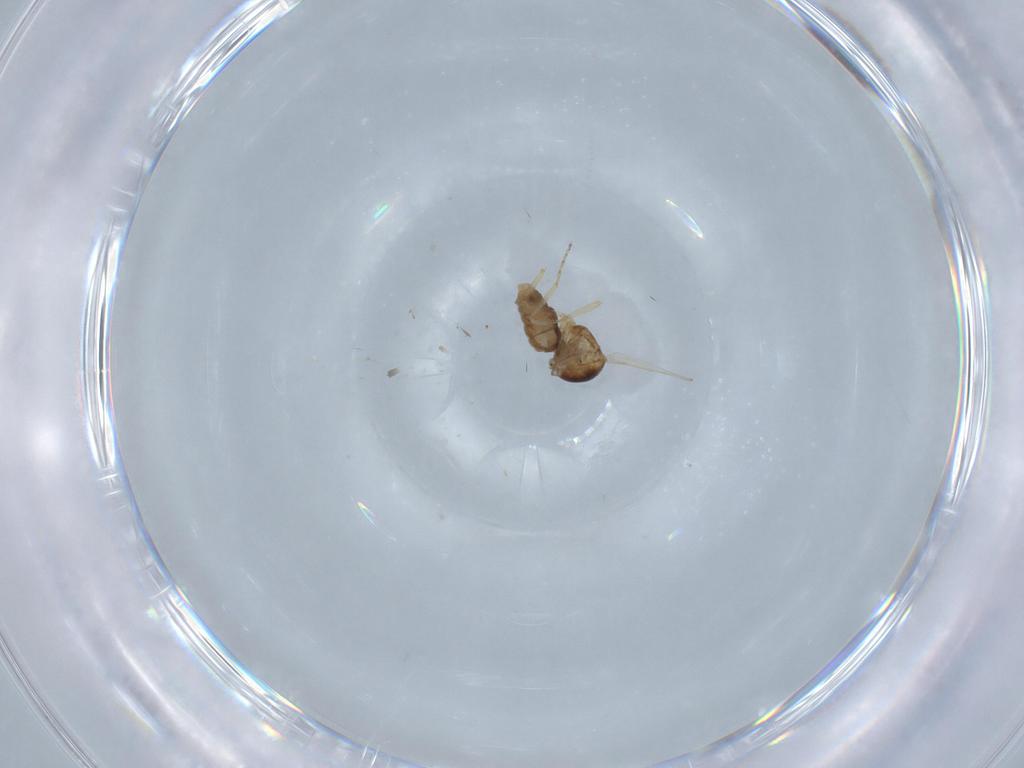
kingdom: Animalia
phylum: Arthropoda
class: Insecta
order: Diptera
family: Ceratopogonidae
